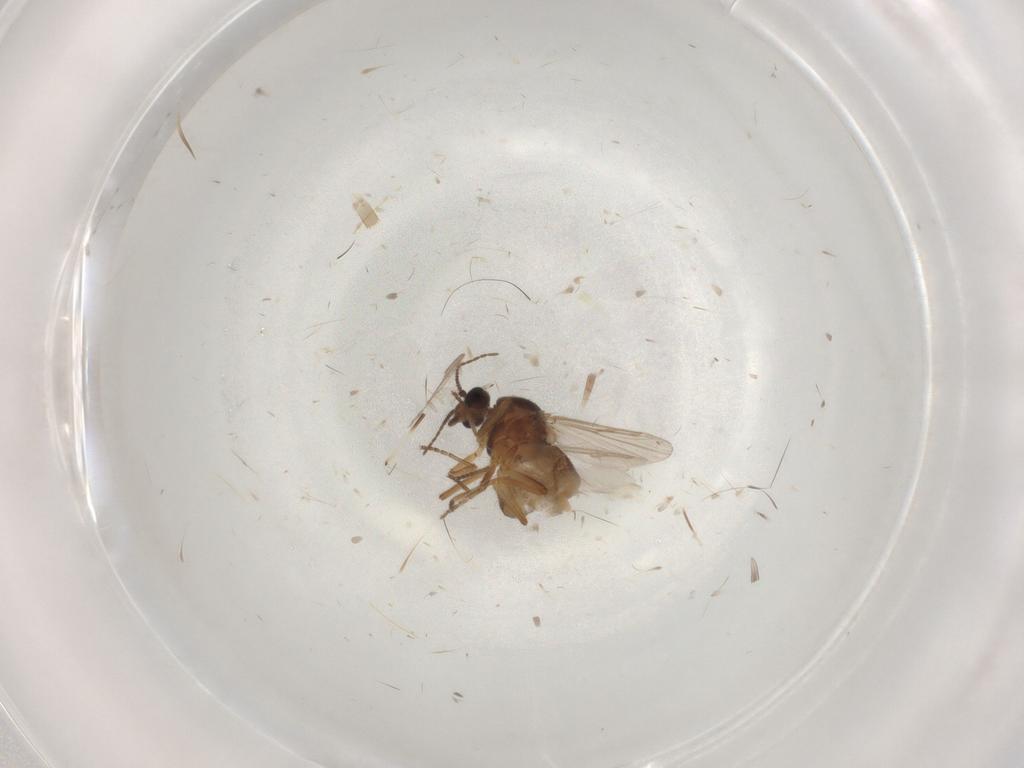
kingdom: Animalia
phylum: Arthropoda
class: Insecta
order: Diptera
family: Ceratopogonidae
